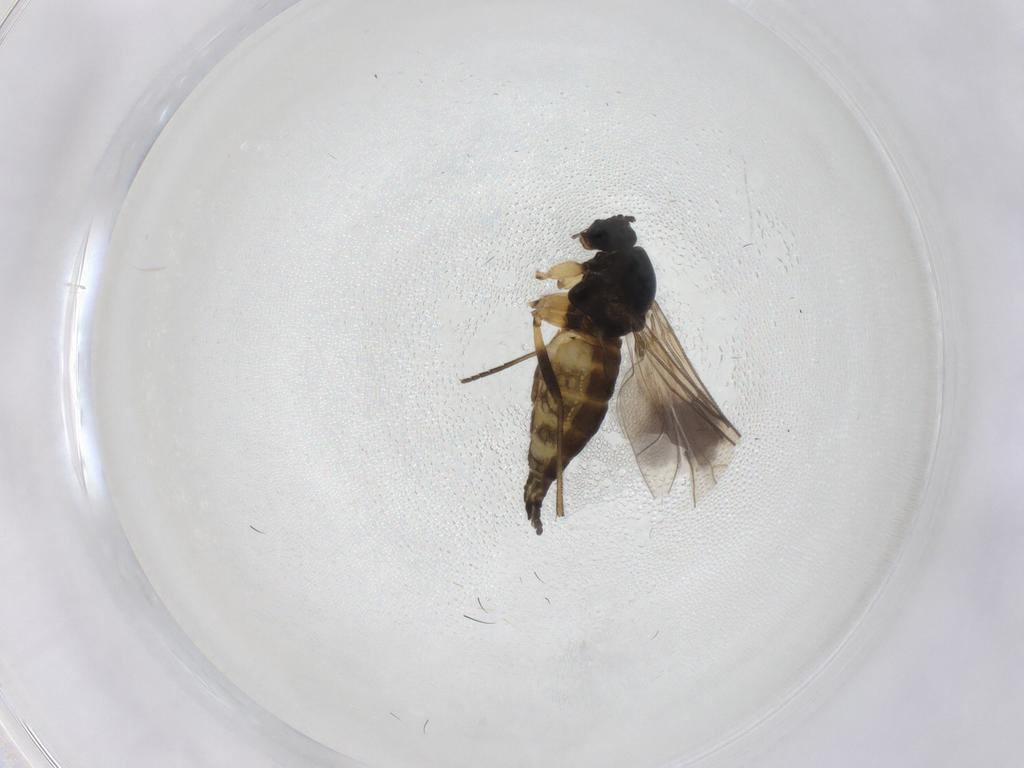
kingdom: Animalia
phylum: Arthropoda
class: Insecta
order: Diptera
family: Sciaridae
